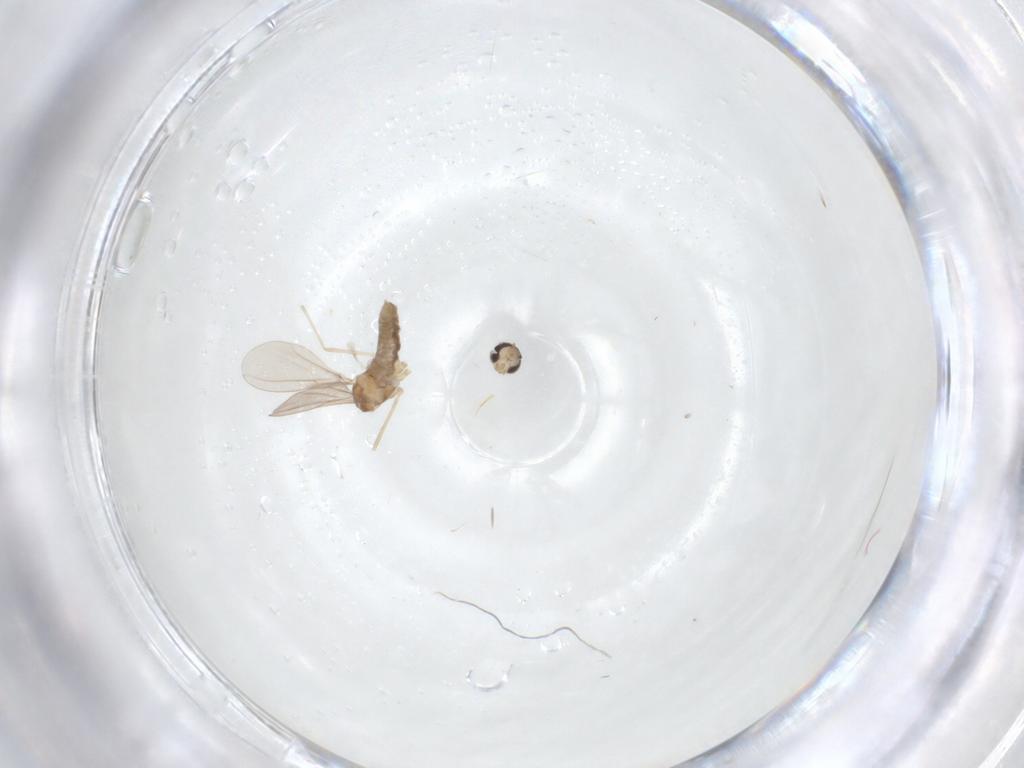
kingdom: Animalia
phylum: Arthropoda
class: Insecta
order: Diptera
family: Cecidomyiidae
